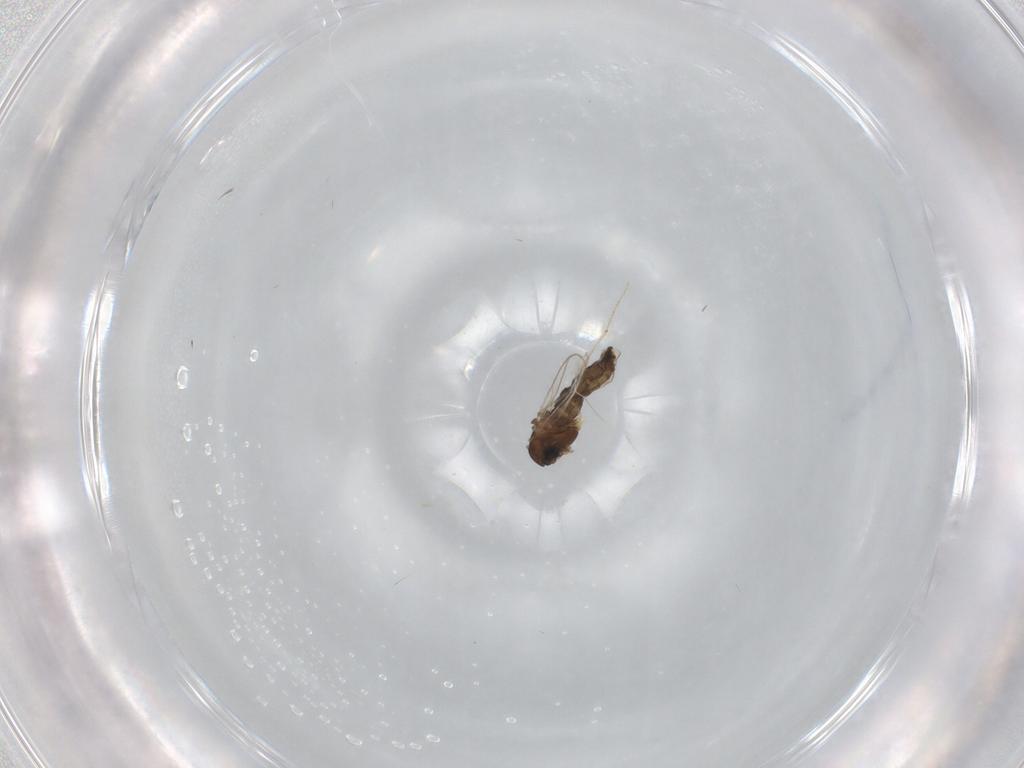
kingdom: Animalia
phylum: Arthropoda
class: Insecta
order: Diptera
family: Chironomidae
